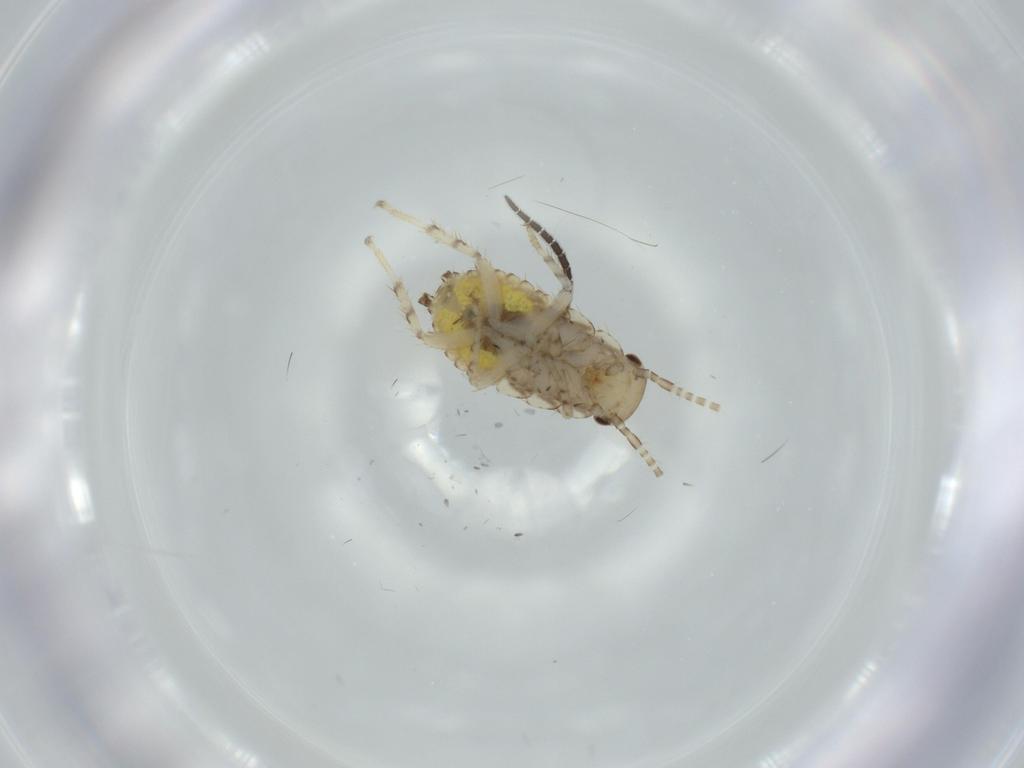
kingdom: Animalia
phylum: Arthropoda
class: Insecta
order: Blattodea
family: Ectobiidae
